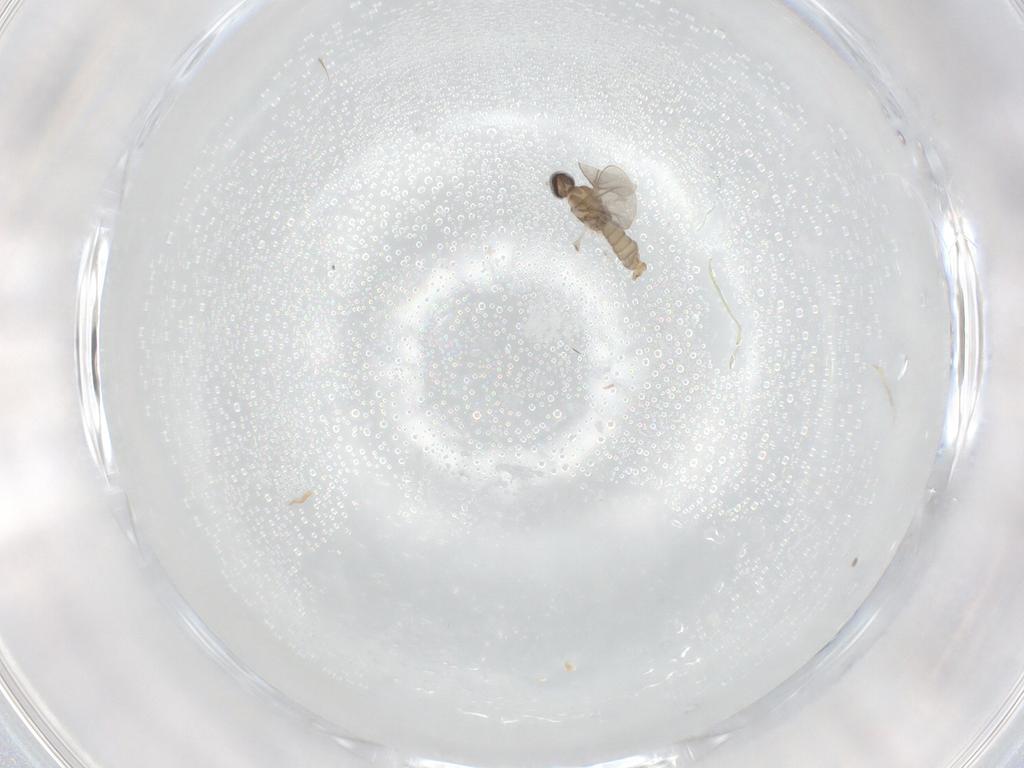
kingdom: Animalia
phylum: Arthropoda
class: Insecta
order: Diptera
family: Cecidomyiidae
